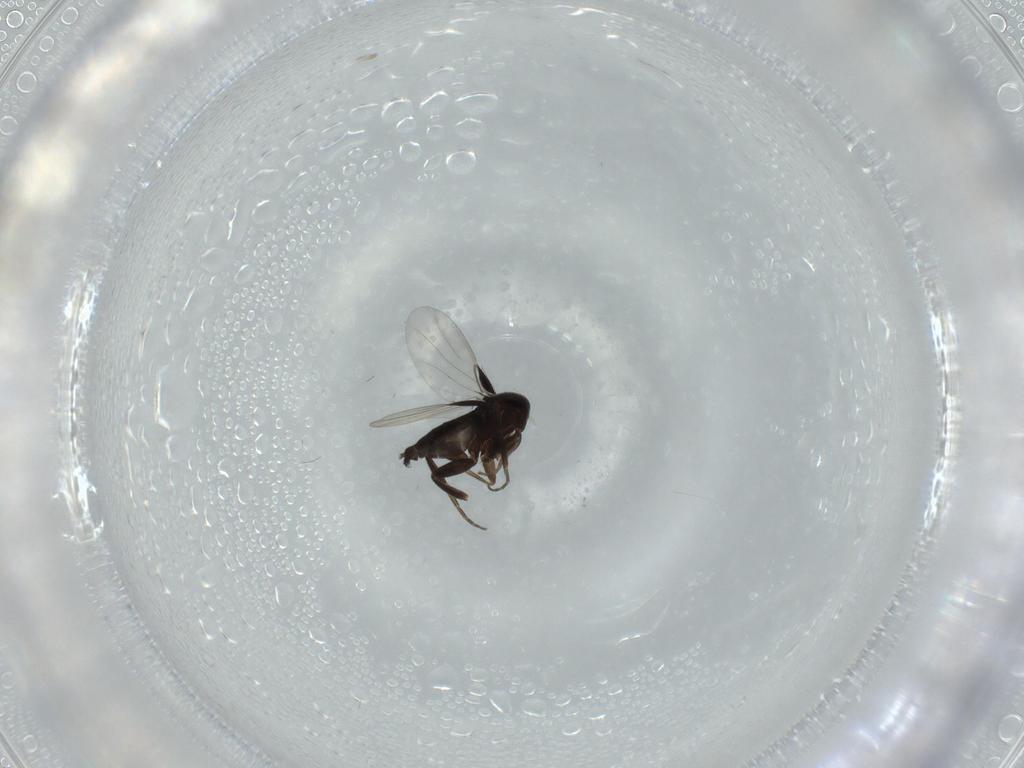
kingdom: Animalia
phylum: Arthropoda
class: Insecta
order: Diptera
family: Phoridae
